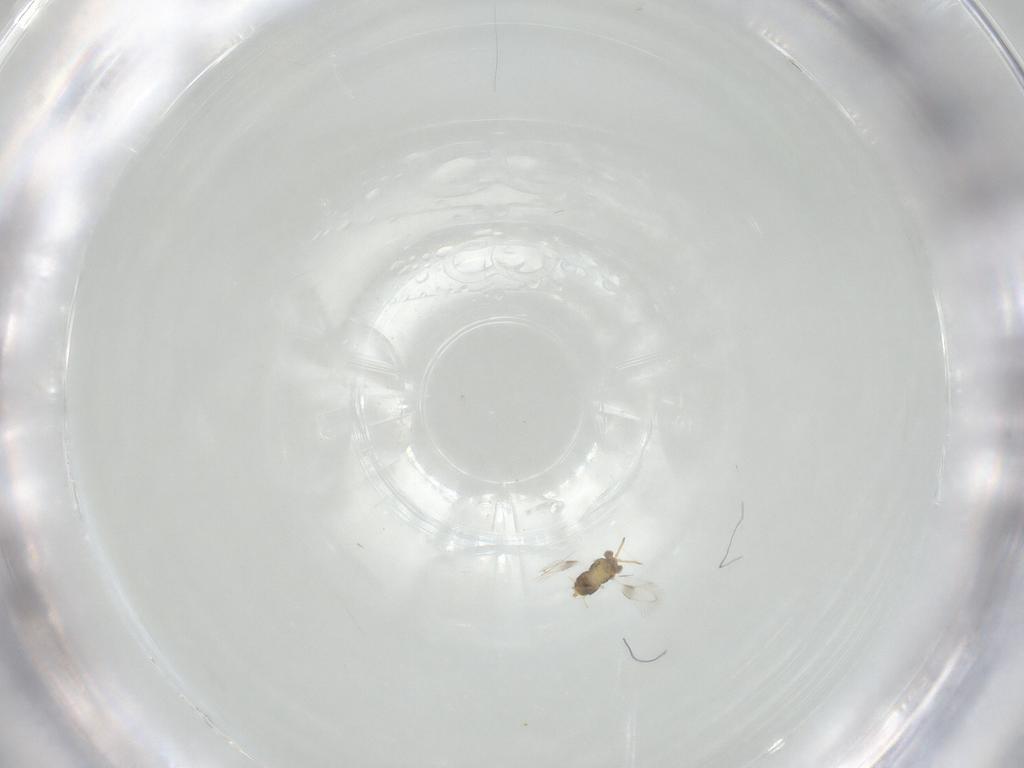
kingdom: Animalia
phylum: Arthropoda
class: Insecta
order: Hymenoptera
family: Aphelinidae
